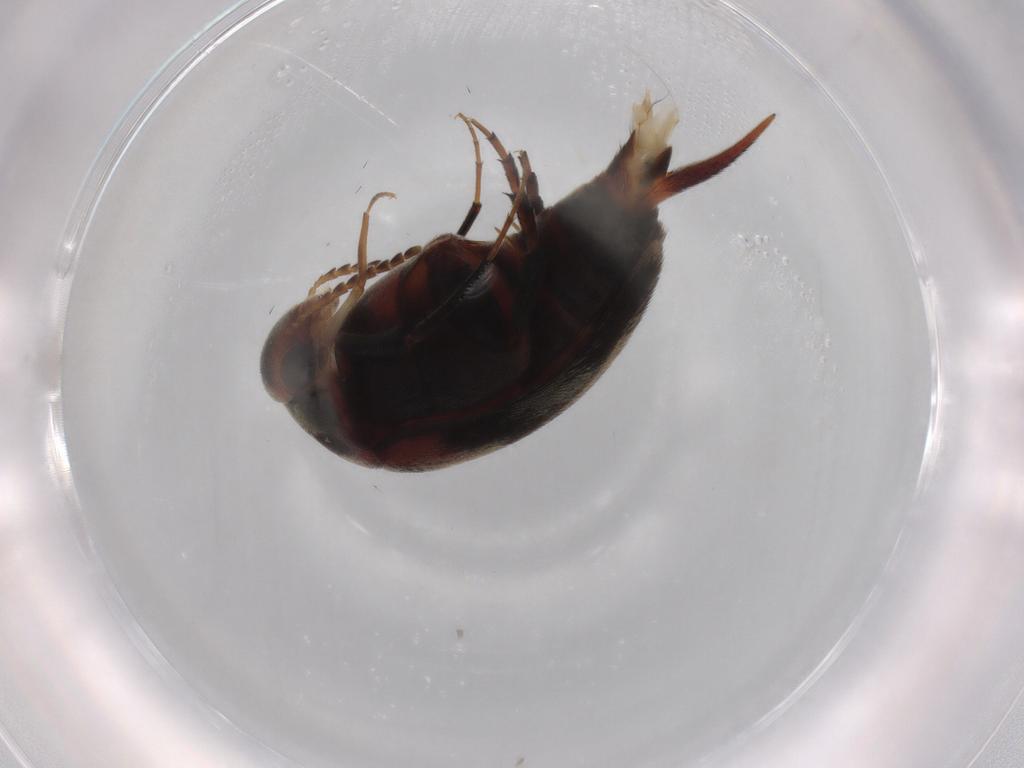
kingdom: Animalia
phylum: Arthropoda
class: Insecta
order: Coleoptera
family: Mordellidae
